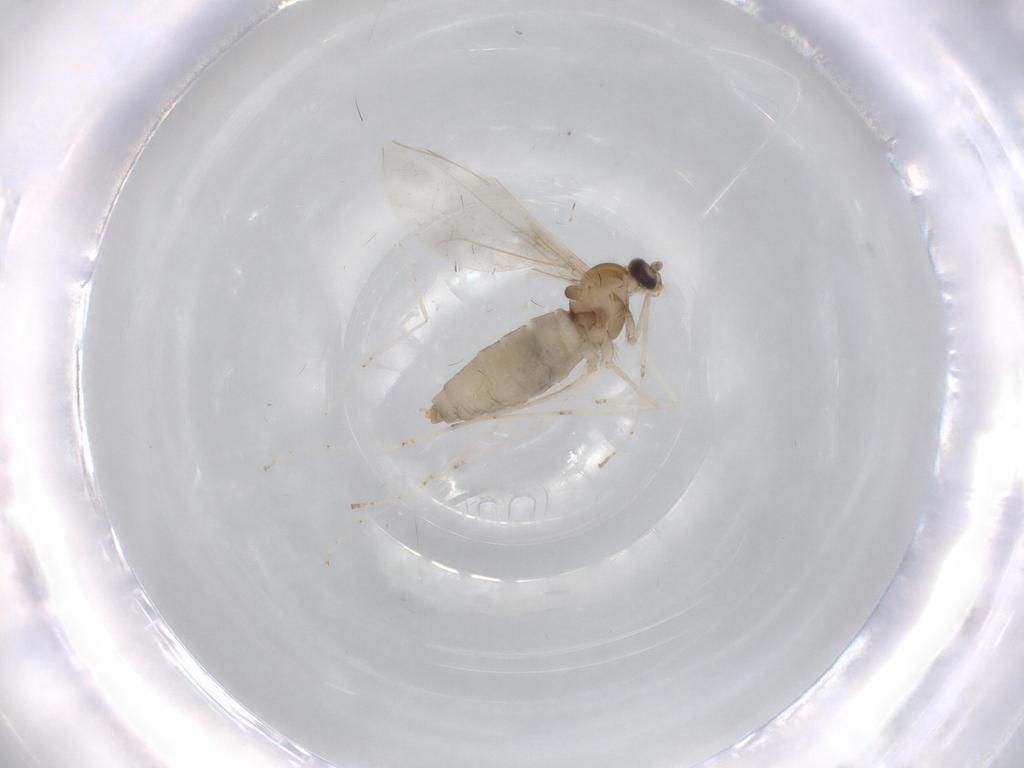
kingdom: Animalia
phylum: Arthropoda
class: Insecta
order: Diptera
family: Cecidomyiidae
